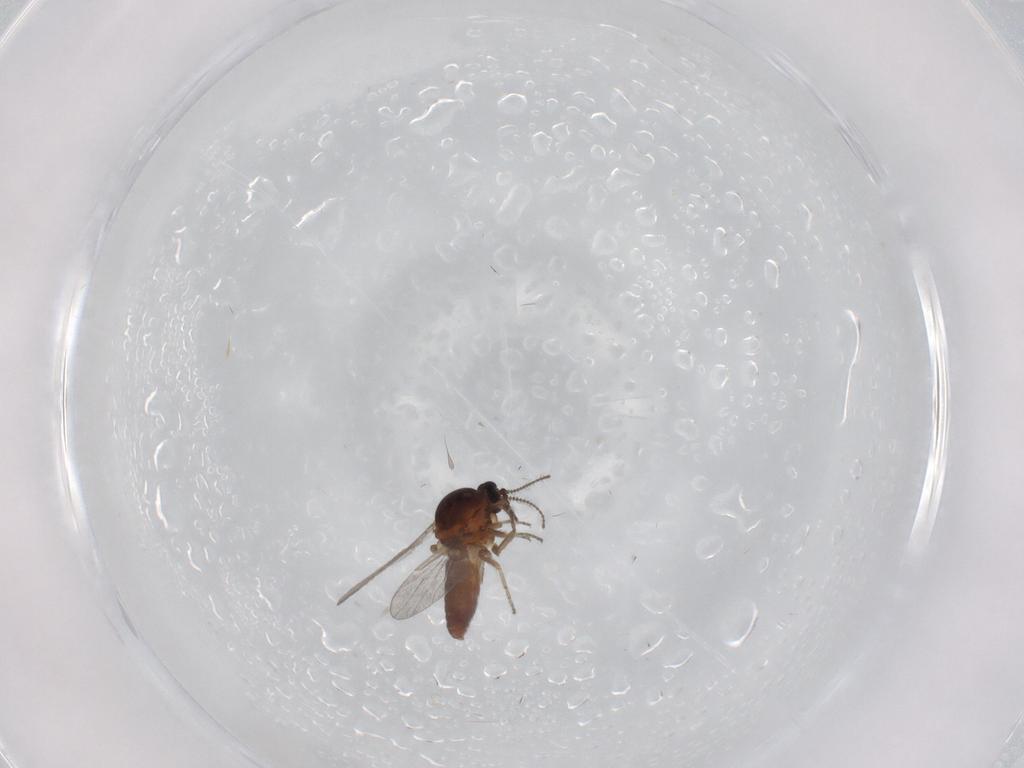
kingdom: Animalia
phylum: Arthropoda
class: Insecta
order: Diptera
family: Ceratopogonidae
